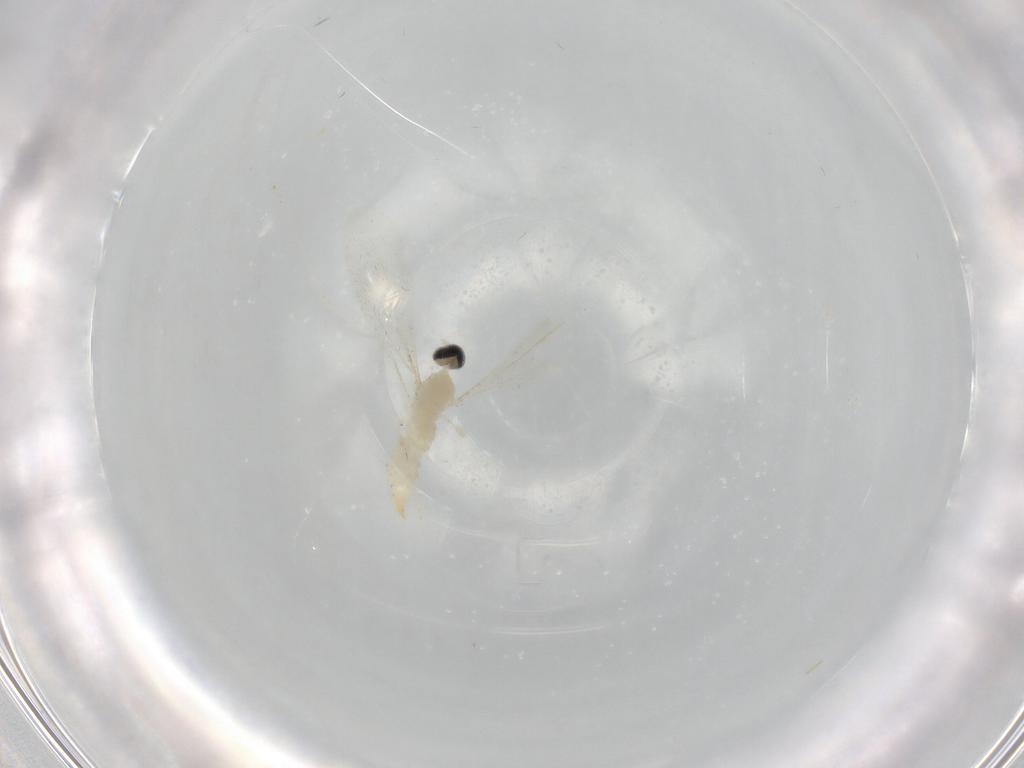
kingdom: Animalia
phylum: Arthropoda
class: Insecta
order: Diptera
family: Cecidomyiidae
